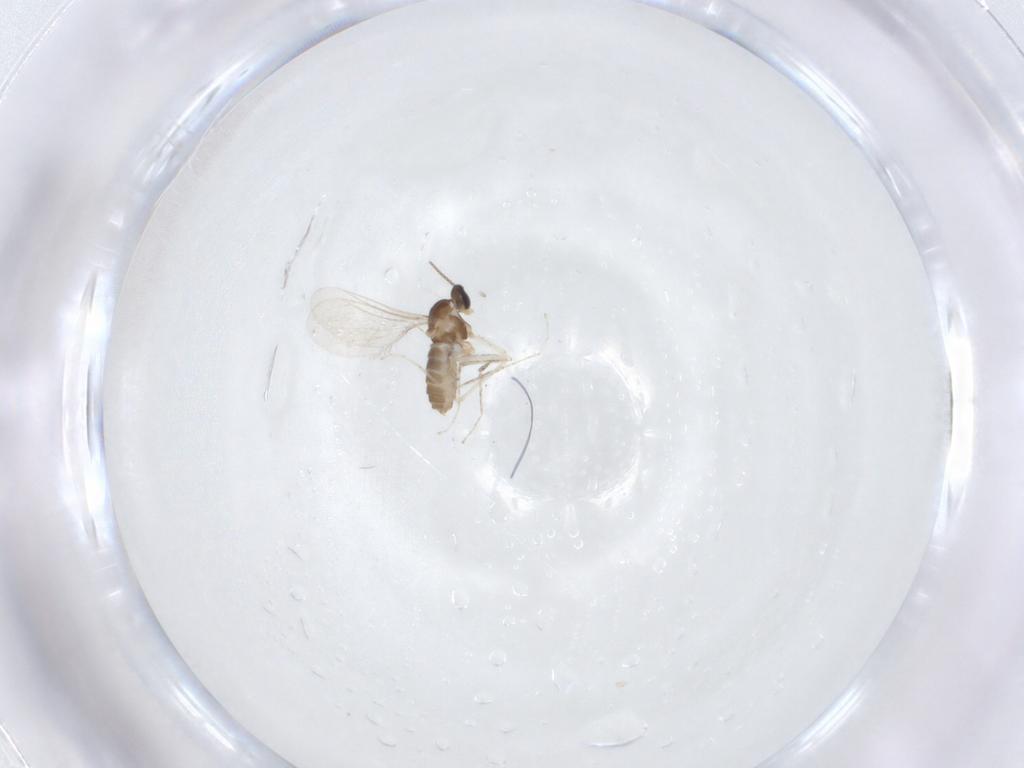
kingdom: Animalia
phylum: Arthropoda
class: Insecta
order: Diptera
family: Cecidomyiidae
